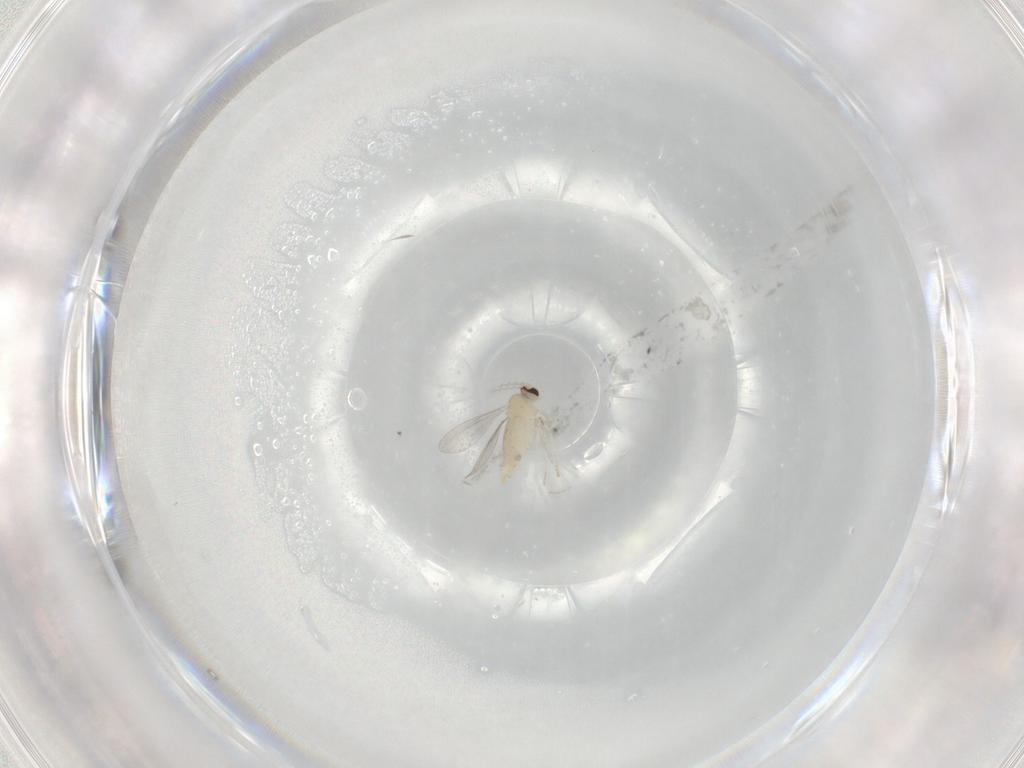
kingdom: Animalia
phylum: Arthropoda
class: Insecta
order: Diptera
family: Cecidomyiidae
